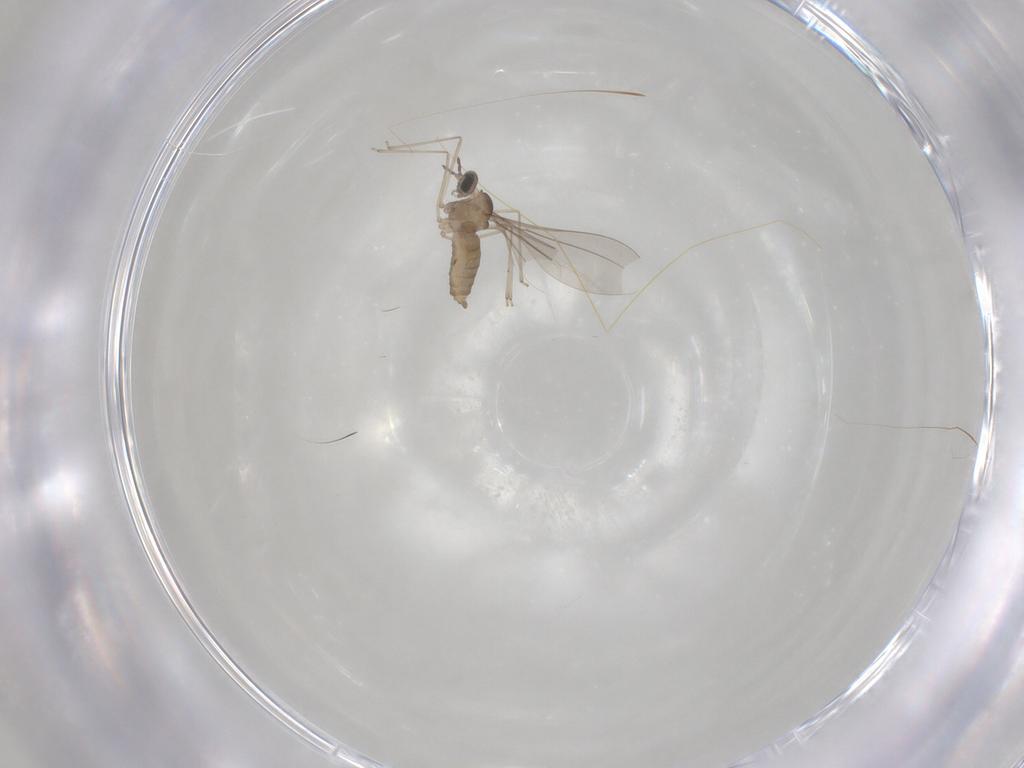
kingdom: Animalia
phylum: Arthropoda
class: Insecta
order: Diptera
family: Cecidomyiidae
